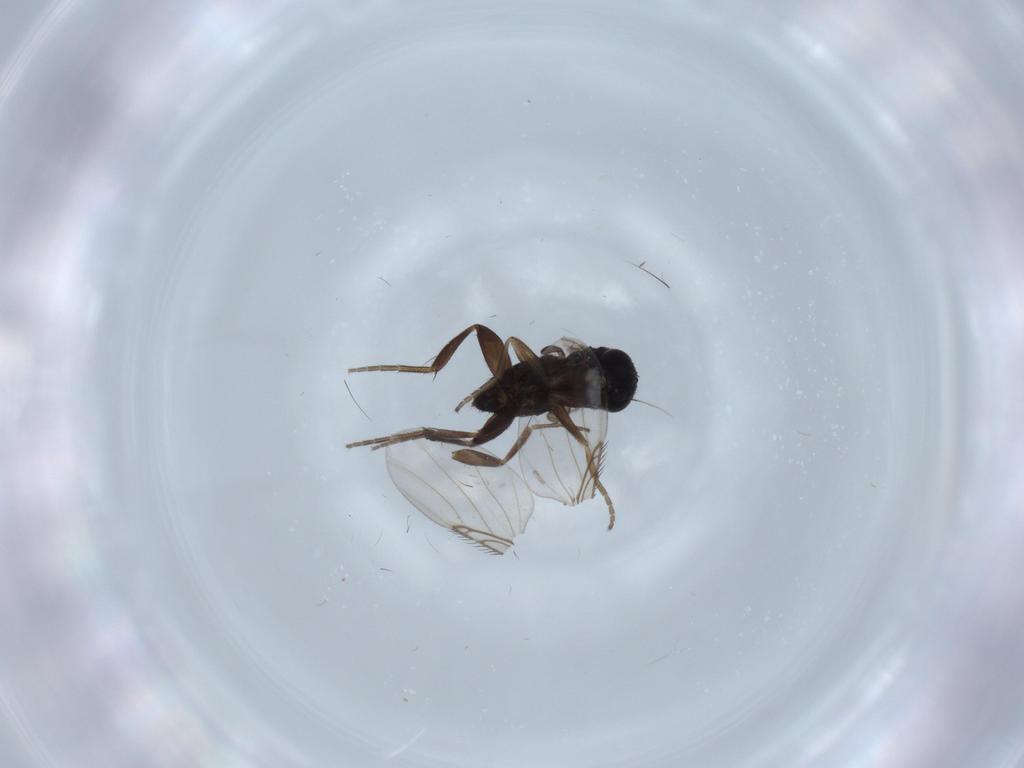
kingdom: Animalia
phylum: Arthropoda
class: Insecta
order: Diptera
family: Phoridae
